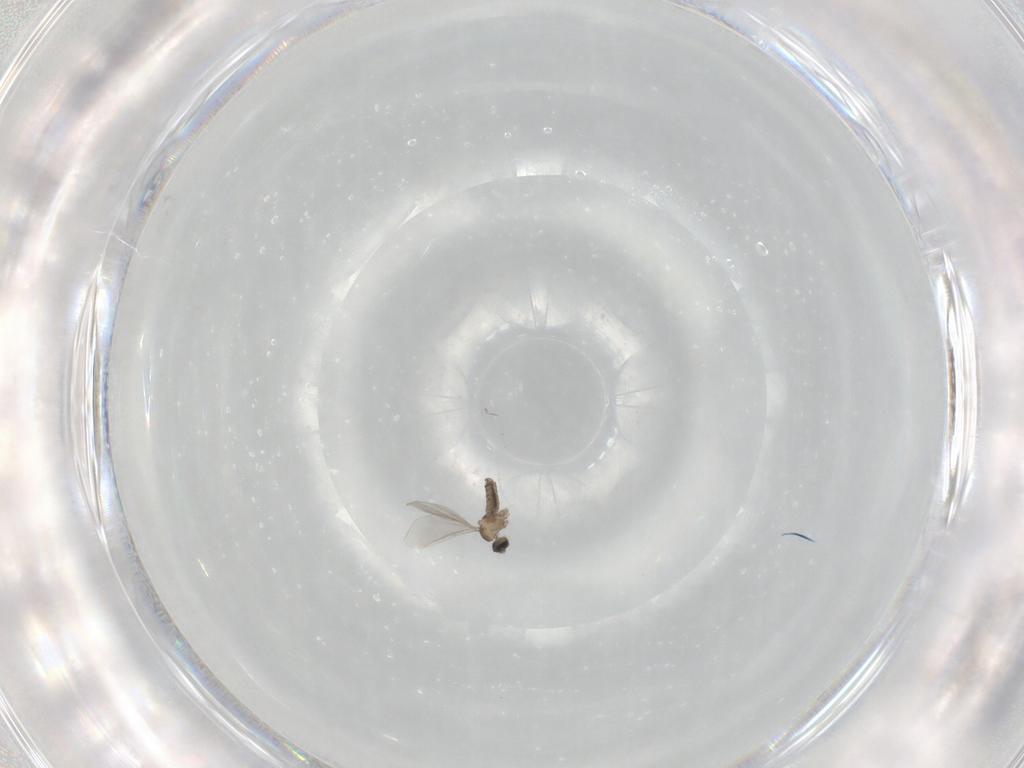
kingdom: Animalia
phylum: Arthropoda
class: Insecta
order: Diptera
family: Cecidomyiidae
